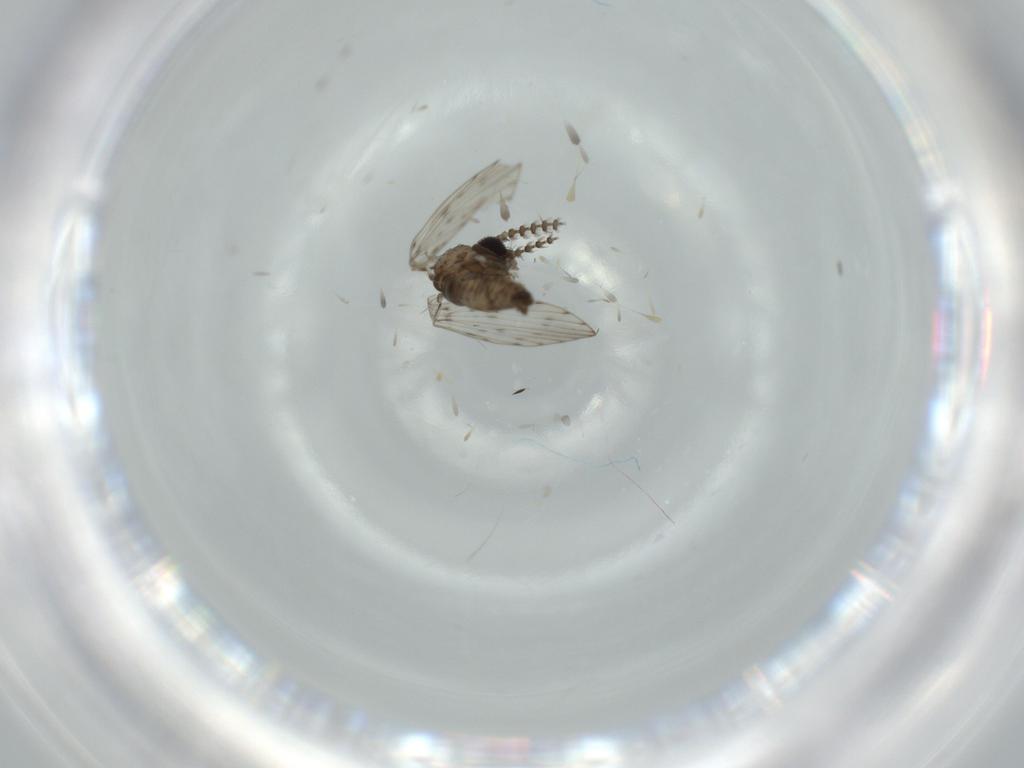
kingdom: Animalia
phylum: Arthropoda
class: Insecta
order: Diptera
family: Psychodidae
